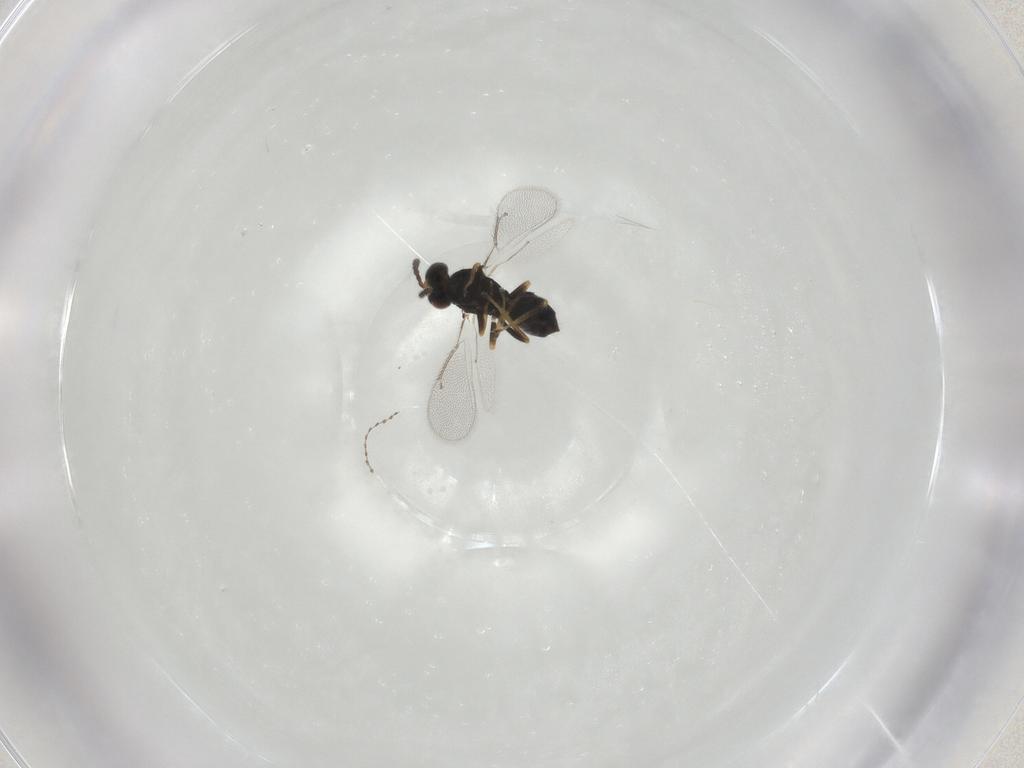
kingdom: Animalia
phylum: Arthropoda
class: Insecta
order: Hymenoptera
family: Eulophidae
